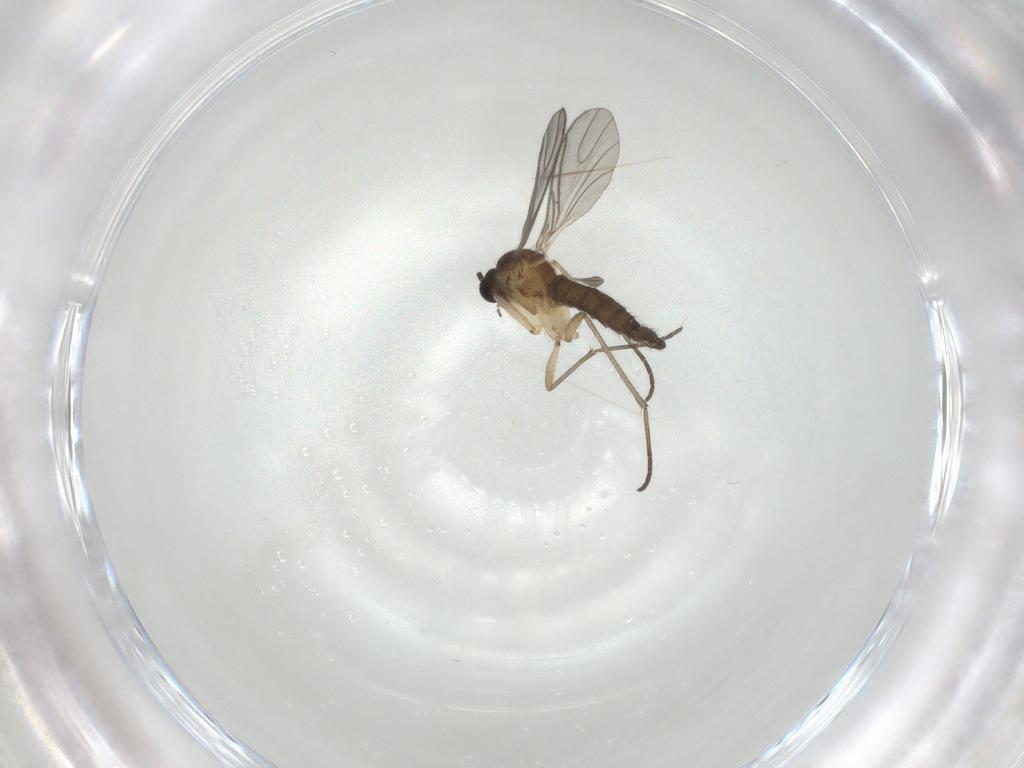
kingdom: Animalia
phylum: Arthropoda
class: Insecta
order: Diptera
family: Sciaridae
